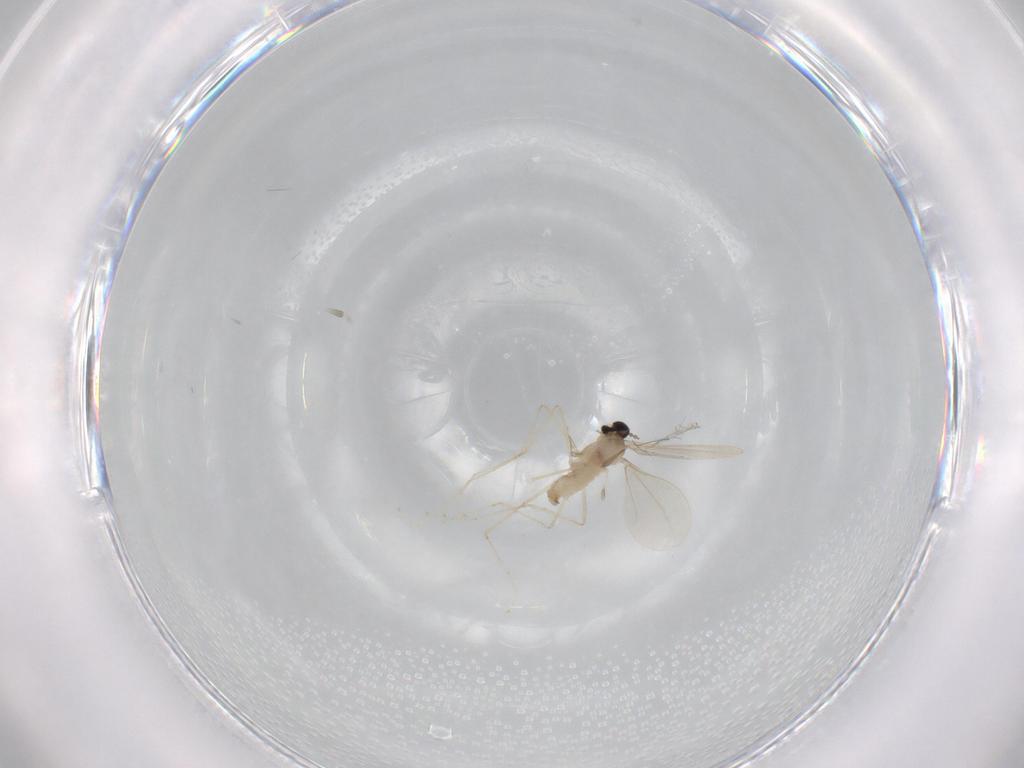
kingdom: Animalia
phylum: Arthropoda
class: Insecta
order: Diptera
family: Cecidomyiidae
